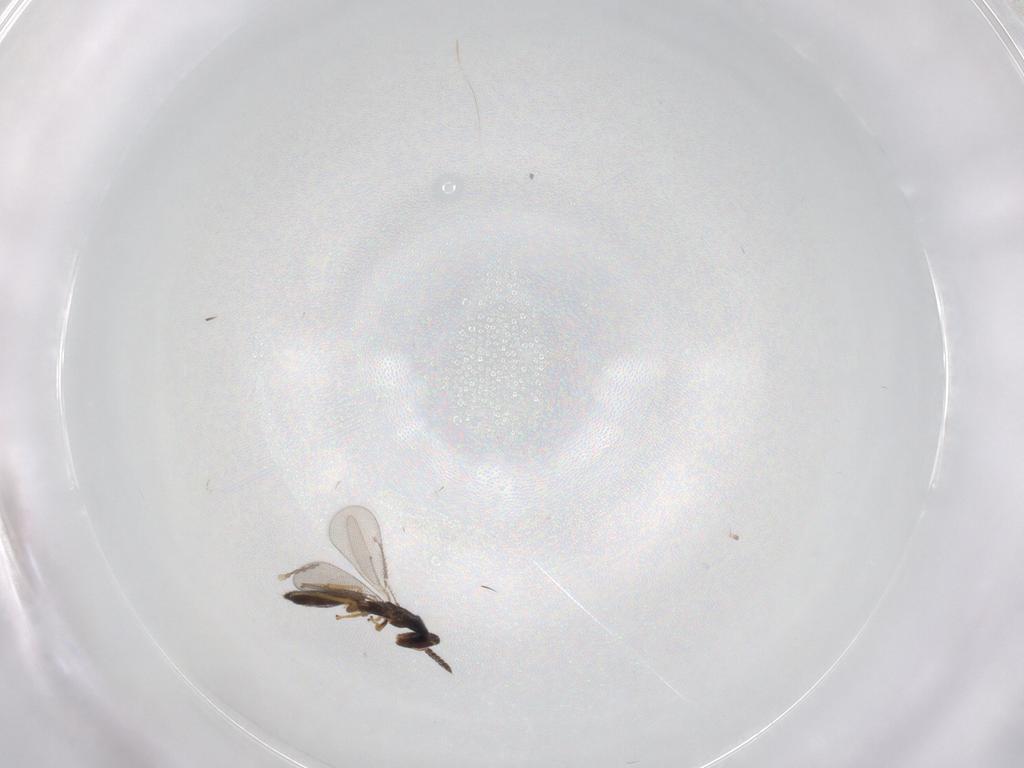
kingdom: Animalia
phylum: Arthropoda
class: Insecta
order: Hymenoptera
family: Eulophidae
